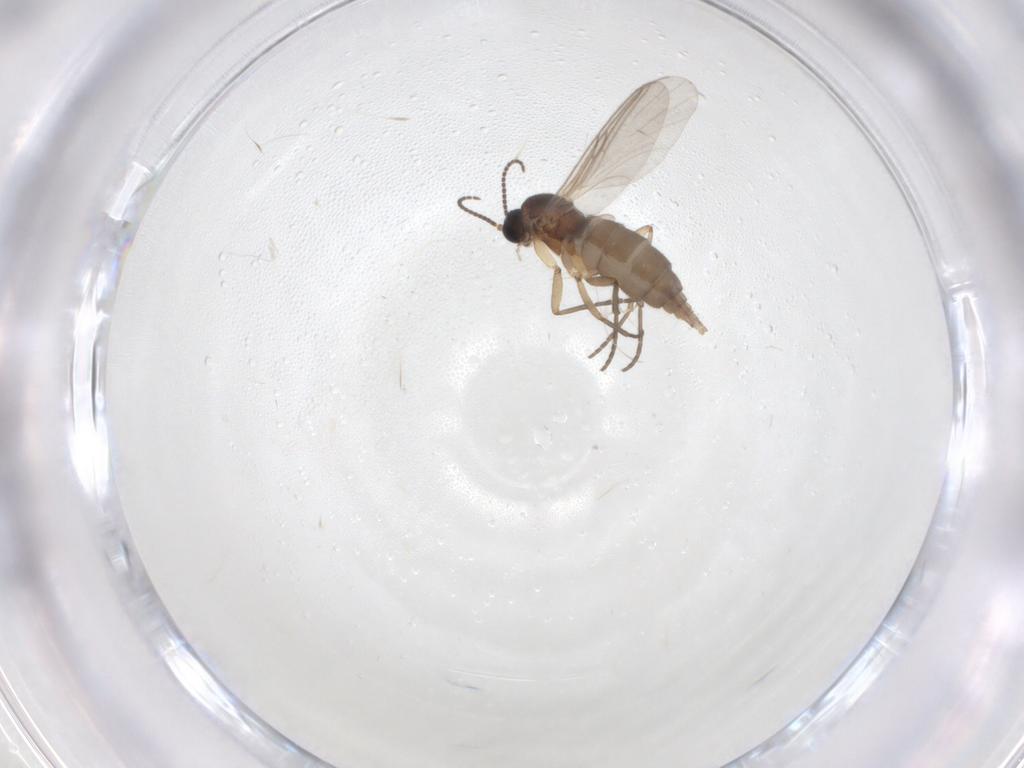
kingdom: Animalia
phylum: Arthropoda
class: Insecta
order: Diptera
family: Sciaridae
